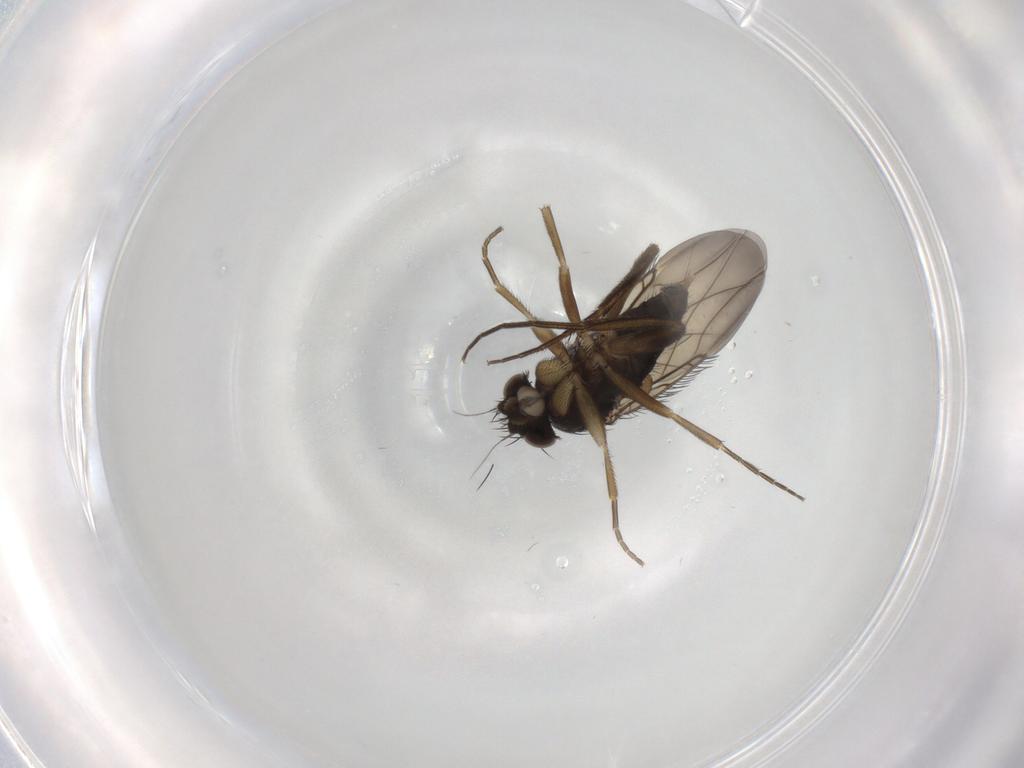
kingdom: Animalia
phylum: Arthropoda
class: Insecta
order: Diptera
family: Phoridae
